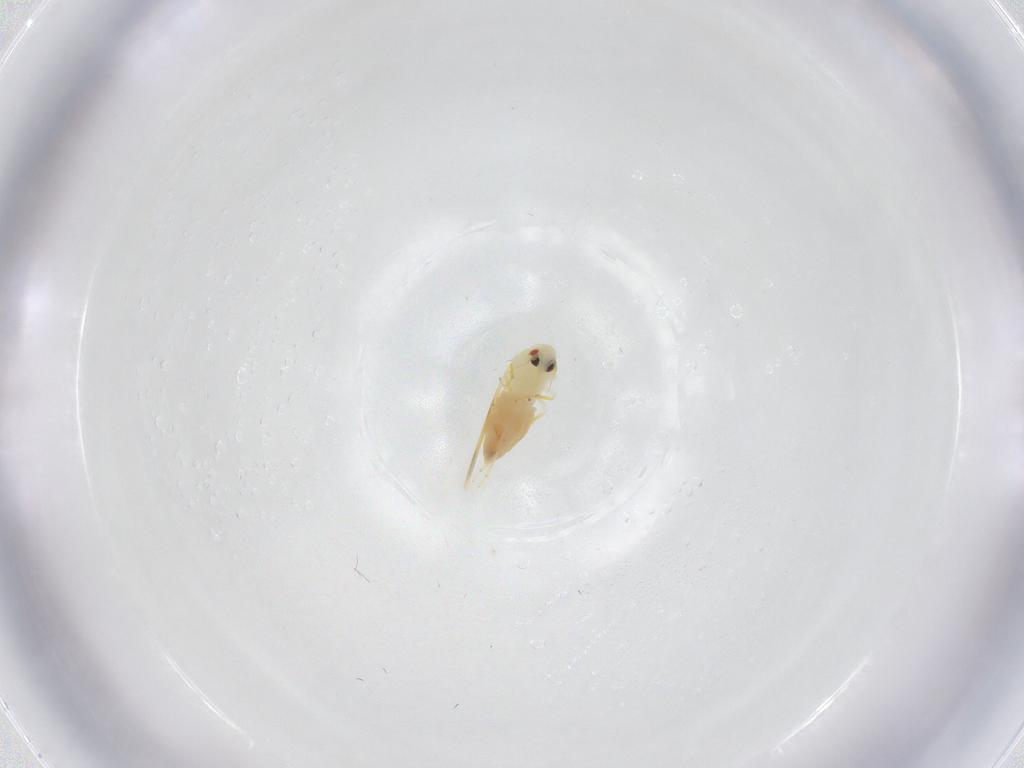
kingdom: Animalia
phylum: Arthropoda
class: Insecta
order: Hemiptera
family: Aleyrodidae
